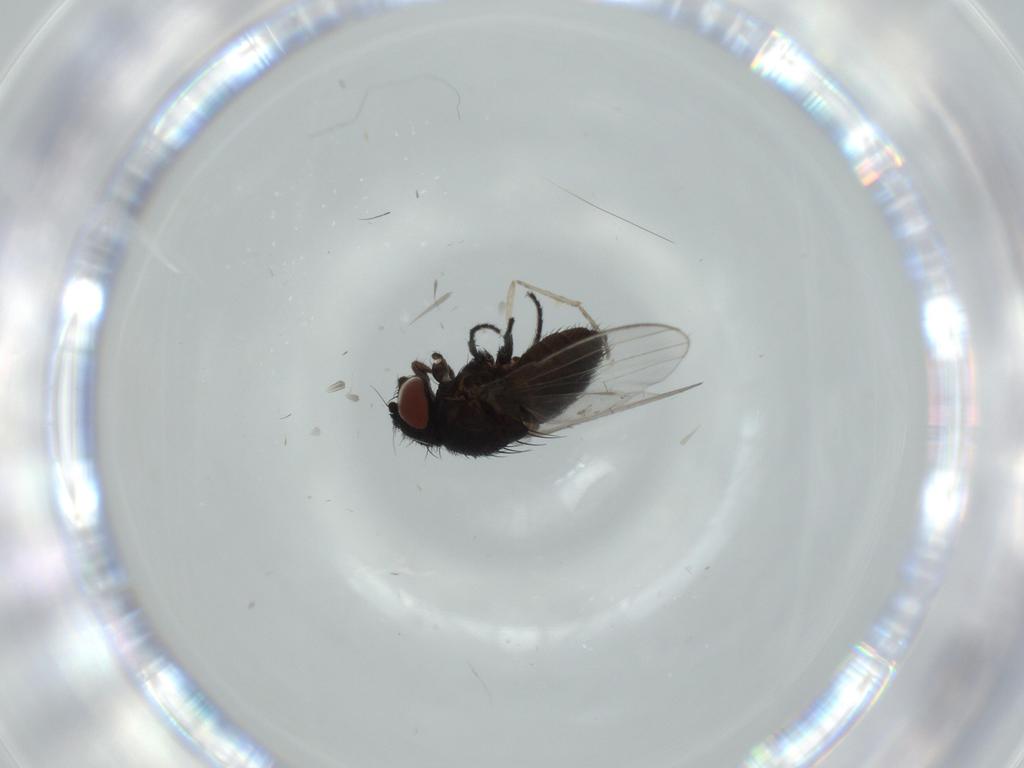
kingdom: Animalia
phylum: Arthropoda
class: Insecta
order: Diptera
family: Milichiidae
